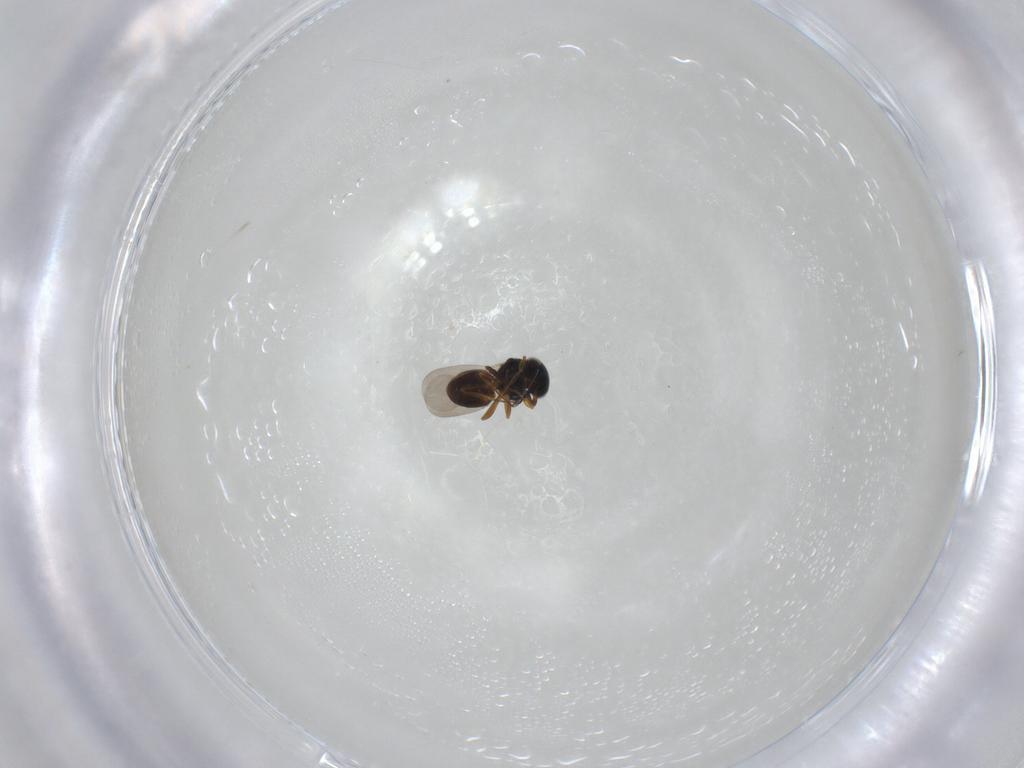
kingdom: Animalia
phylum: Arthropoda
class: Insecta
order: Hymenoptera
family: Platygastridae
